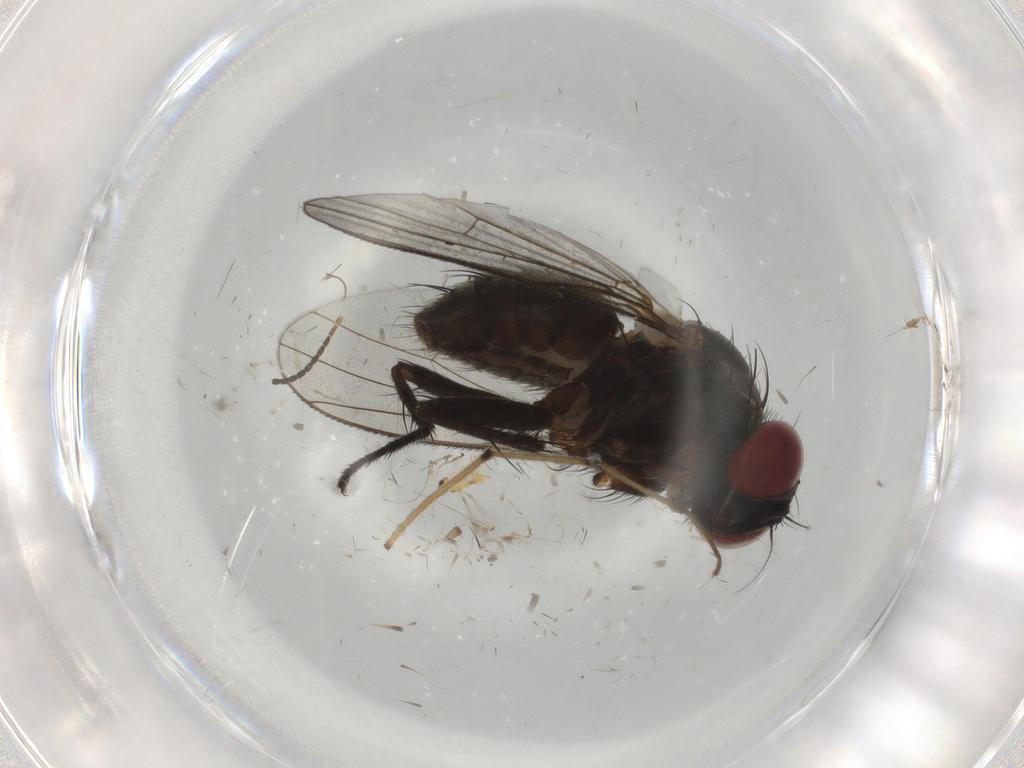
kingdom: Animalia
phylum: Arthropoda
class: Insecta
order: Diptera
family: Muscidae
